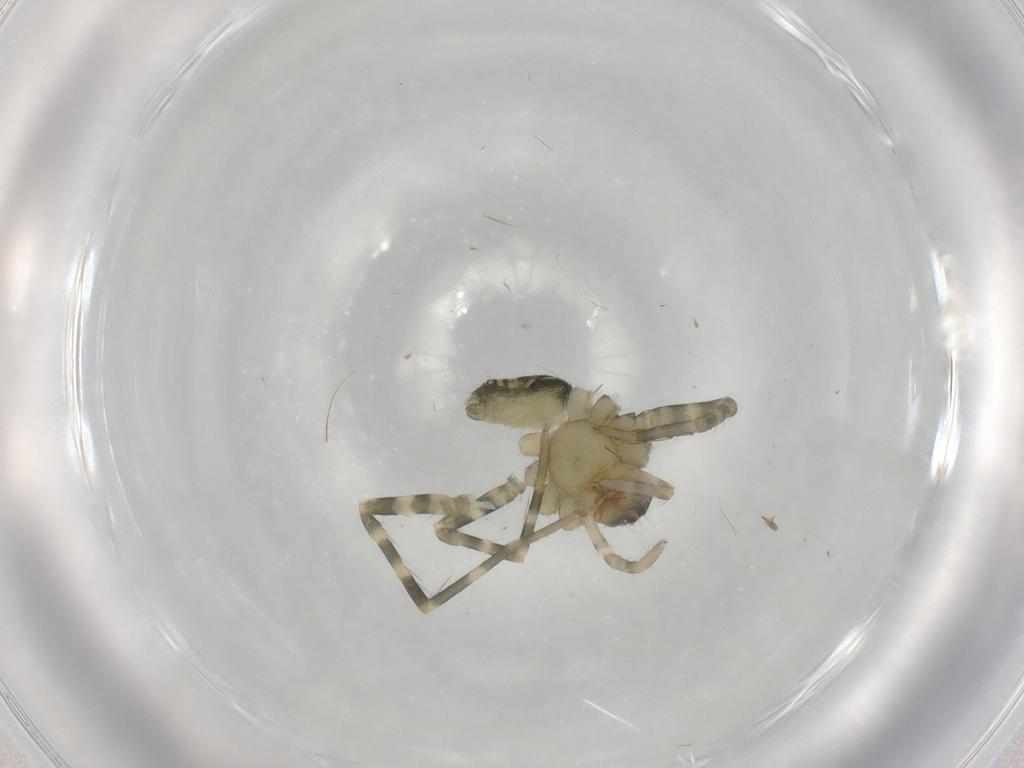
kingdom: Animalia
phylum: Arthropoda
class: Arachnida
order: Araneae
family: Ctenidae
